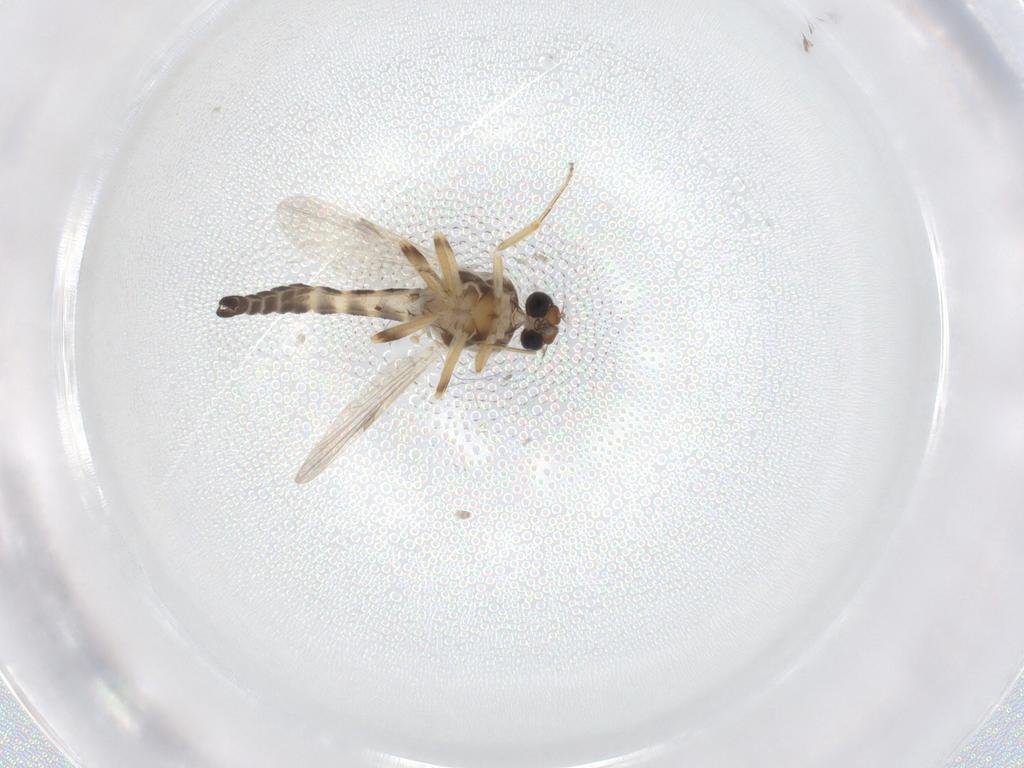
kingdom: Animalia
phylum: Arthropoda
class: Insecta
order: Diptera
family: Ceratopogonidae
